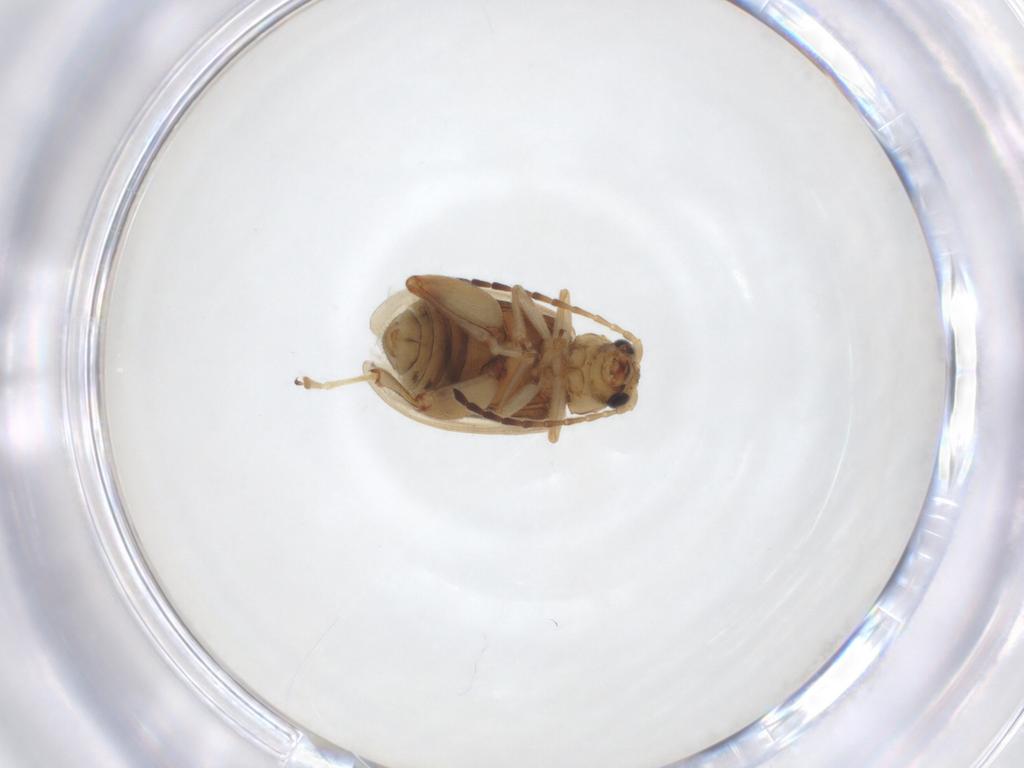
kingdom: Animalia
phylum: Arthropoda
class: Insecta
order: Coleoptera
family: Chrysomelidae
